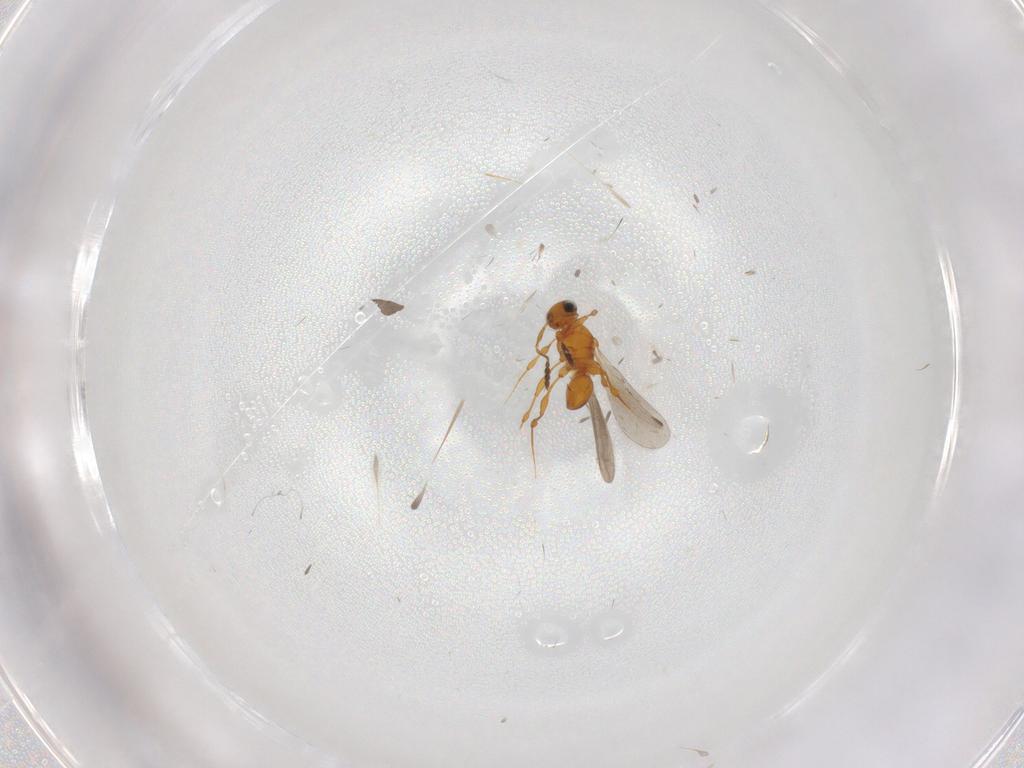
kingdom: Animalia
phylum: Arthropoda
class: Insecta
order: Hymenoptera
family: Platygastridae
